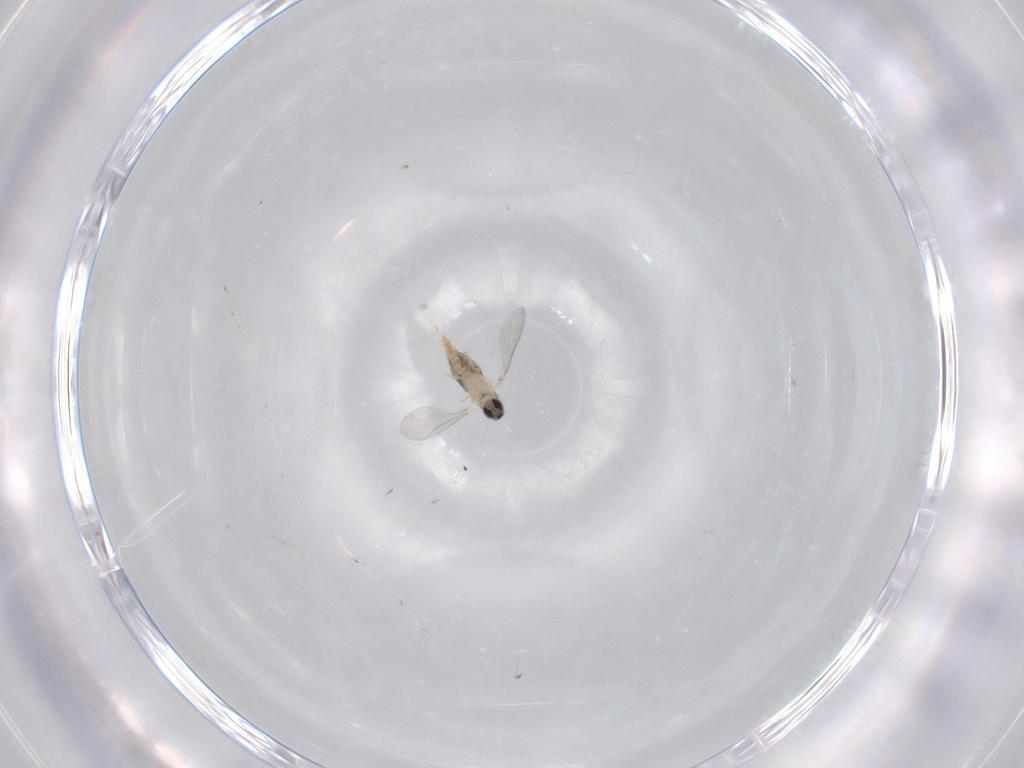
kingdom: Animalia
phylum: Arthropoda
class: Insecta
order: Diptera
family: Cecidomyiidae
